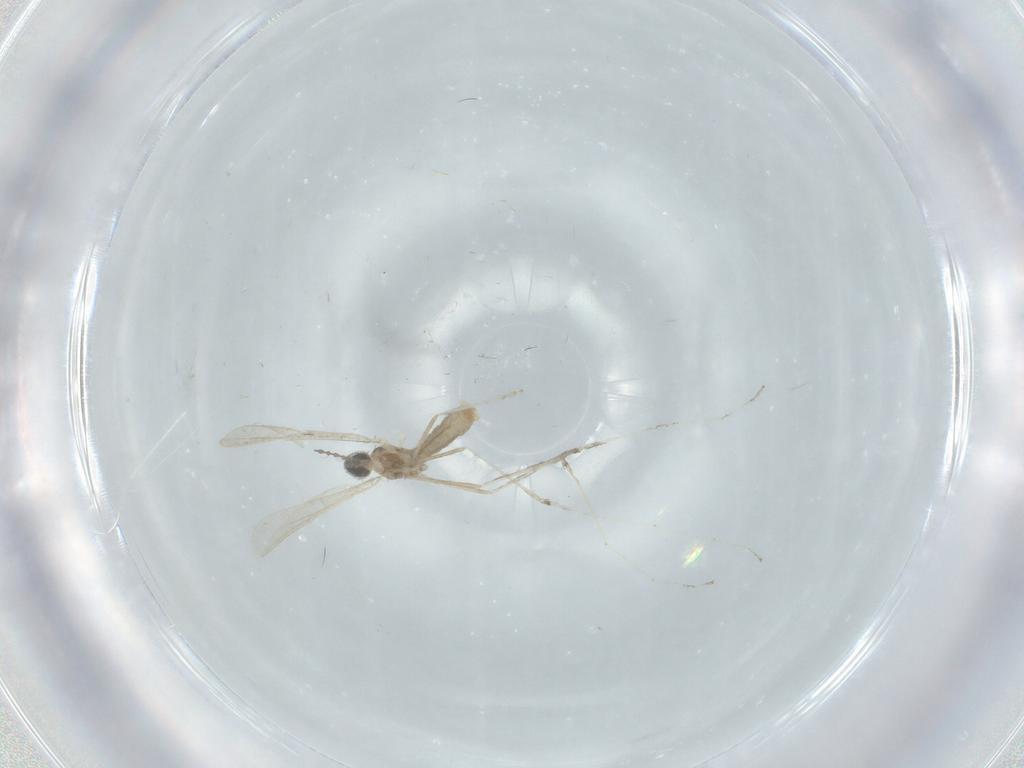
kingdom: Animalia
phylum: Arthropoda
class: Insecta
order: Diptera
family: Cecidomyiidae
